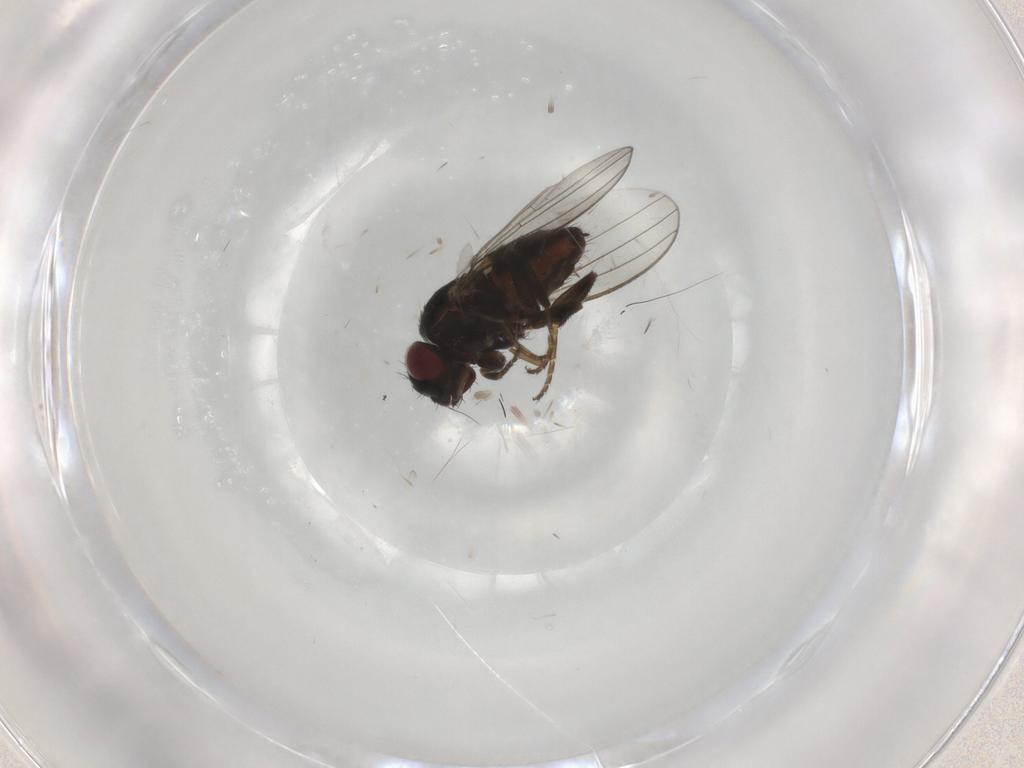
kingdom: Animalia
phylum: Arthropoda
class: Insecta
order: Diptera
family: Milichiidae
